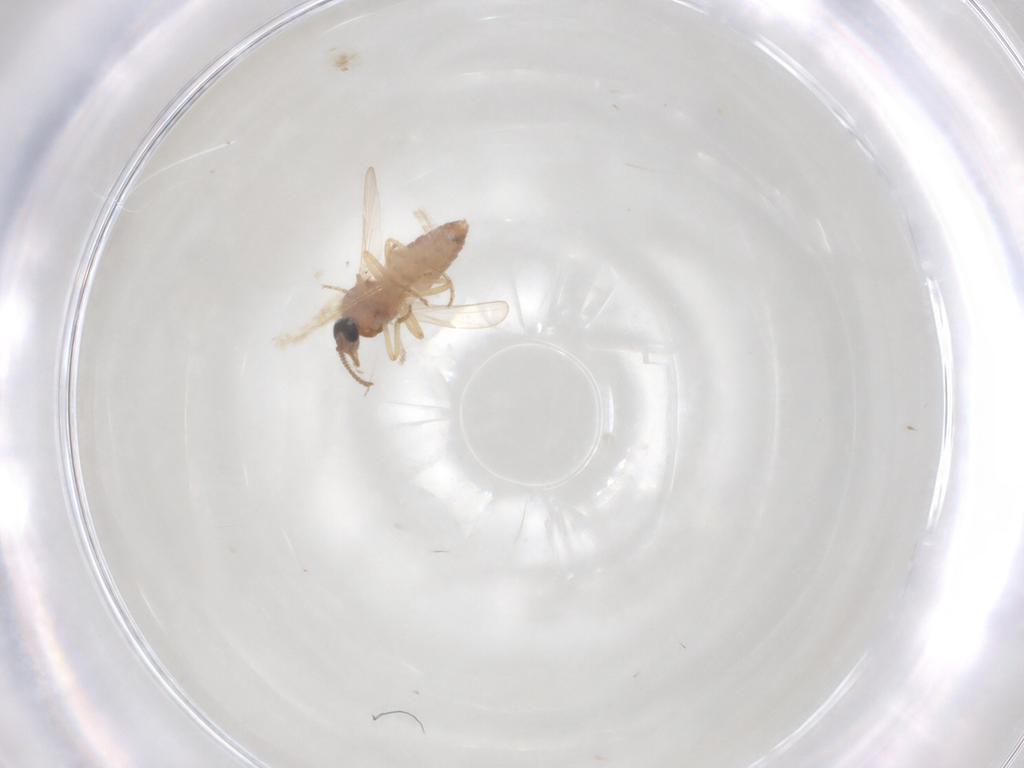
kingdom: Animalia
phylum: Arthropoda
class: Insecta
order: Diptera
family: Ceratopogonidae
